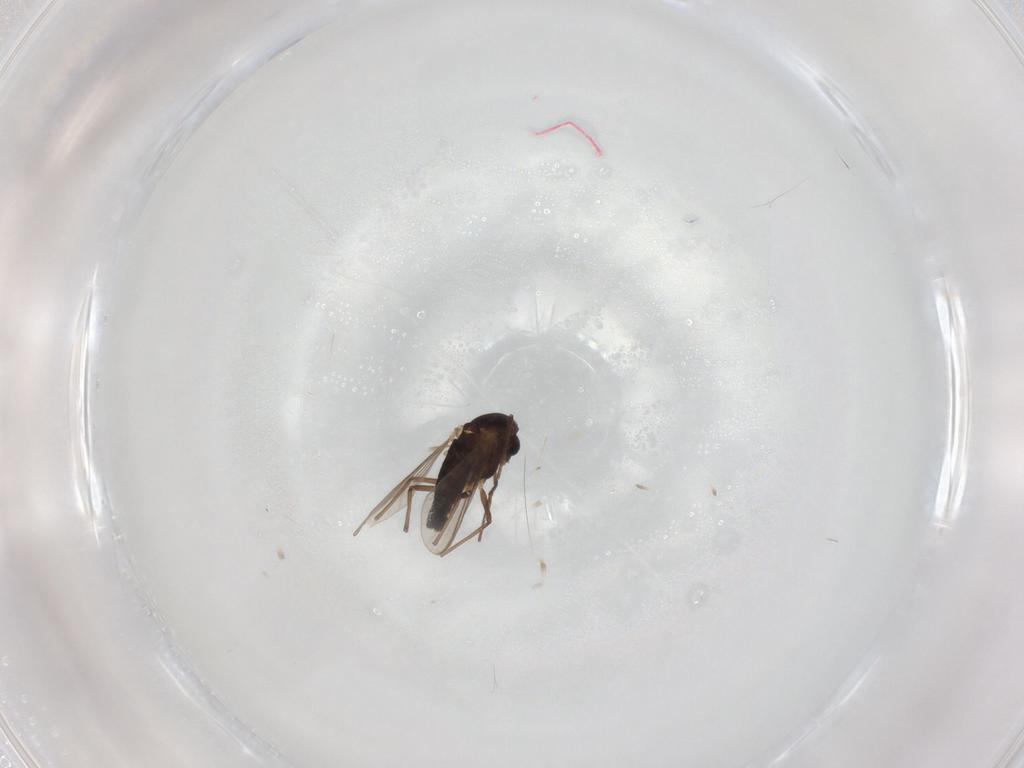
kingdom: Animalia
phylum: Arthropoda
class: Insecta
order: Diptera
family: Chironomidae
